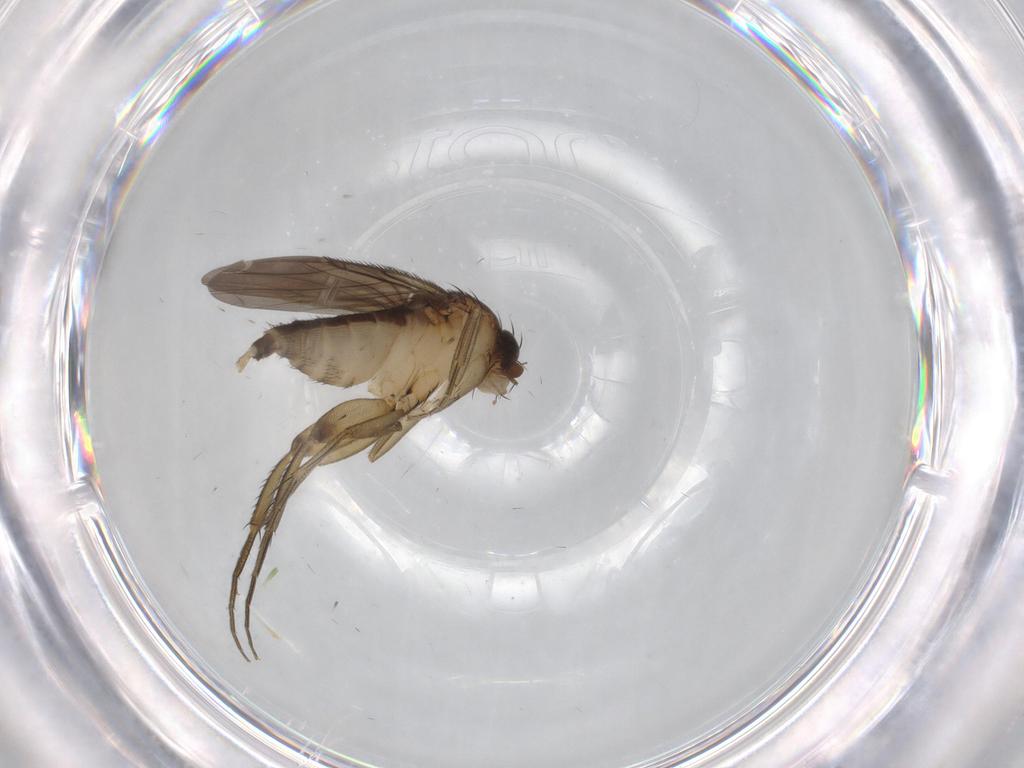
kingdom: Animalia
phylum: Arthropoda
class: Insecta
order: Diptera
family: Phoridae
